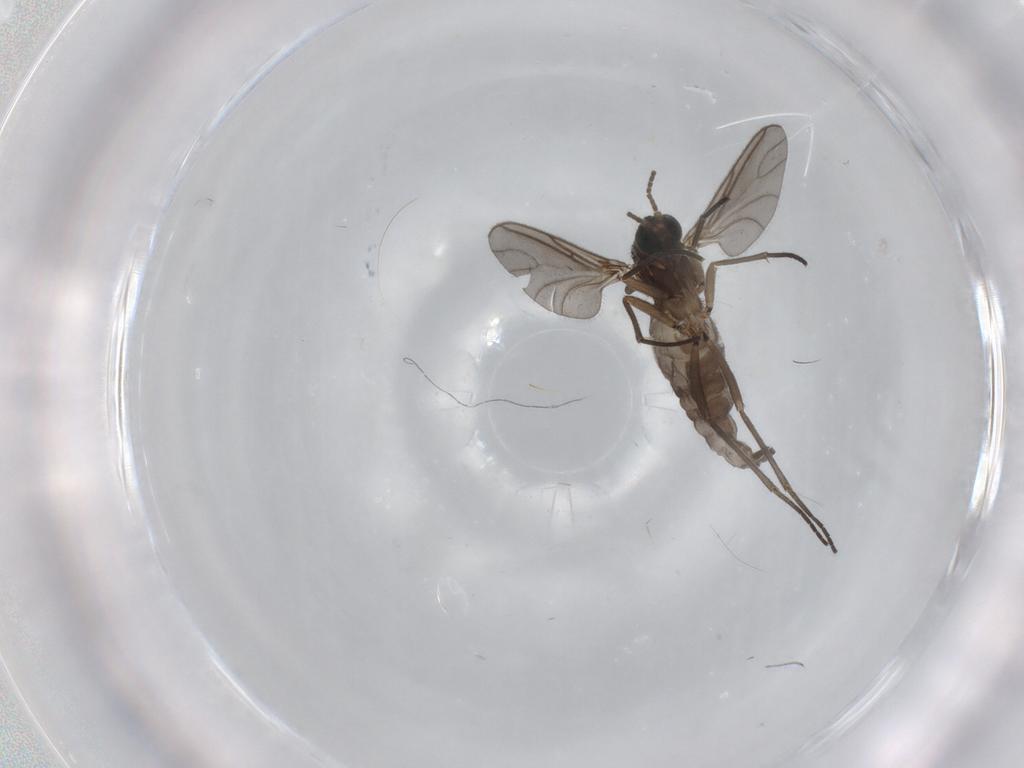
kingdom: Animalia
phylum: Arthropoda
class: Insecta
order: Diptera
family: Sciaridae
